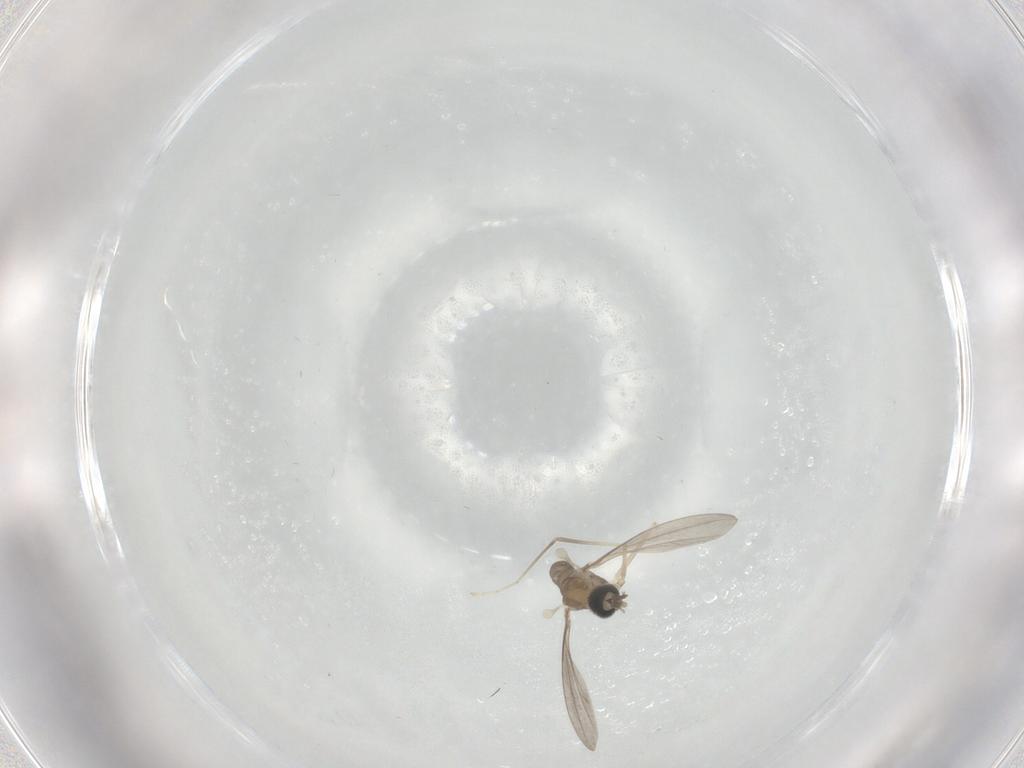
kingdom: Animalia
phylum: Arthropoda
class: Insecta
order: Diptera
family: Cecidomyiidae
